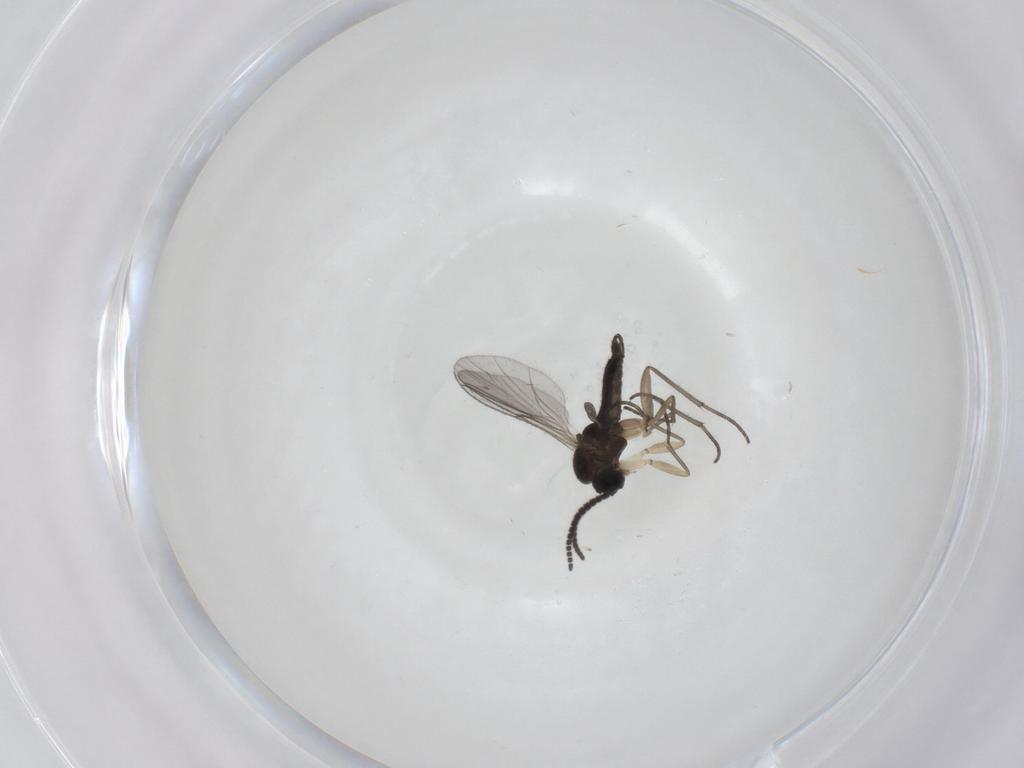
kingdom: Animalia
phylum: Arthropoda
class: Insecta
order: Diptera
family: Sciaridae
